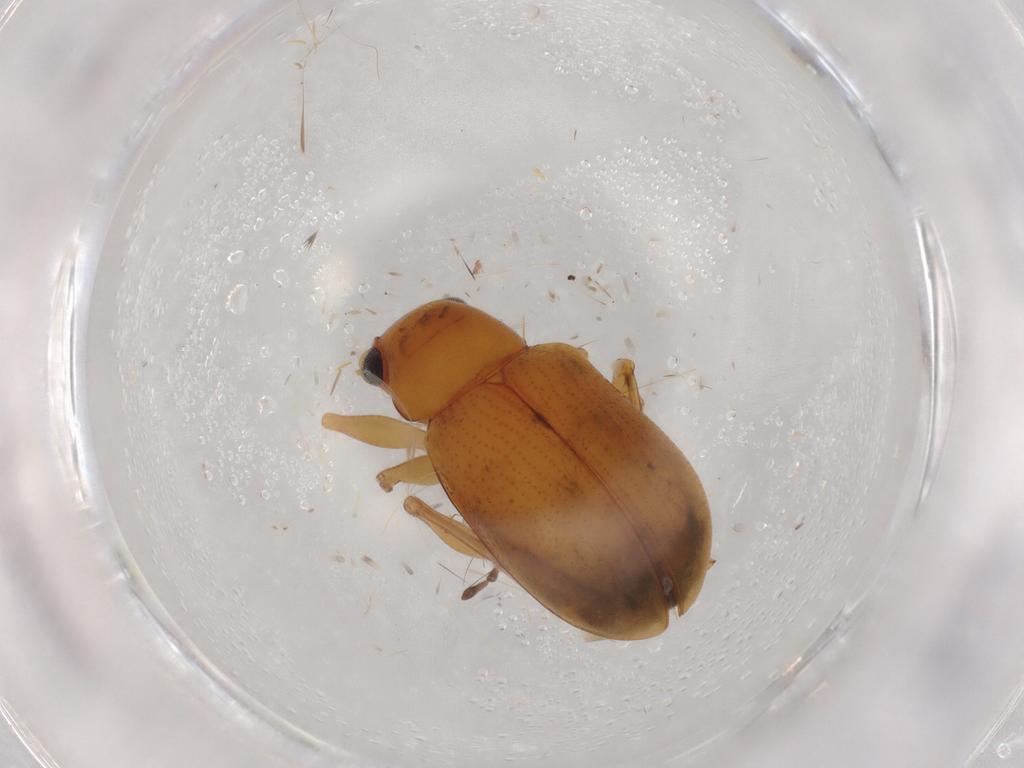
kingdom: Animalia
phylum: Arthropoda
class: Insecta
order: Coleoptera
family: Chrysomelidae
